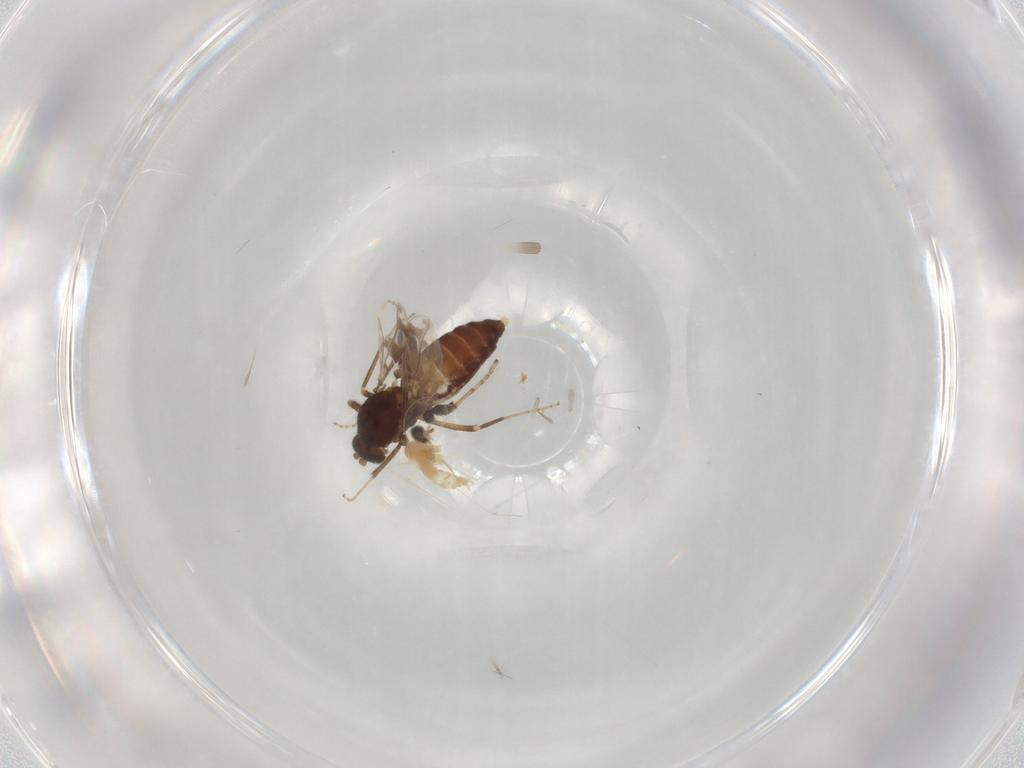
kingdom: Animalia
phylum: Arthropoda
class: Insecta
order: Diptera
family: Cecidomyiidae
